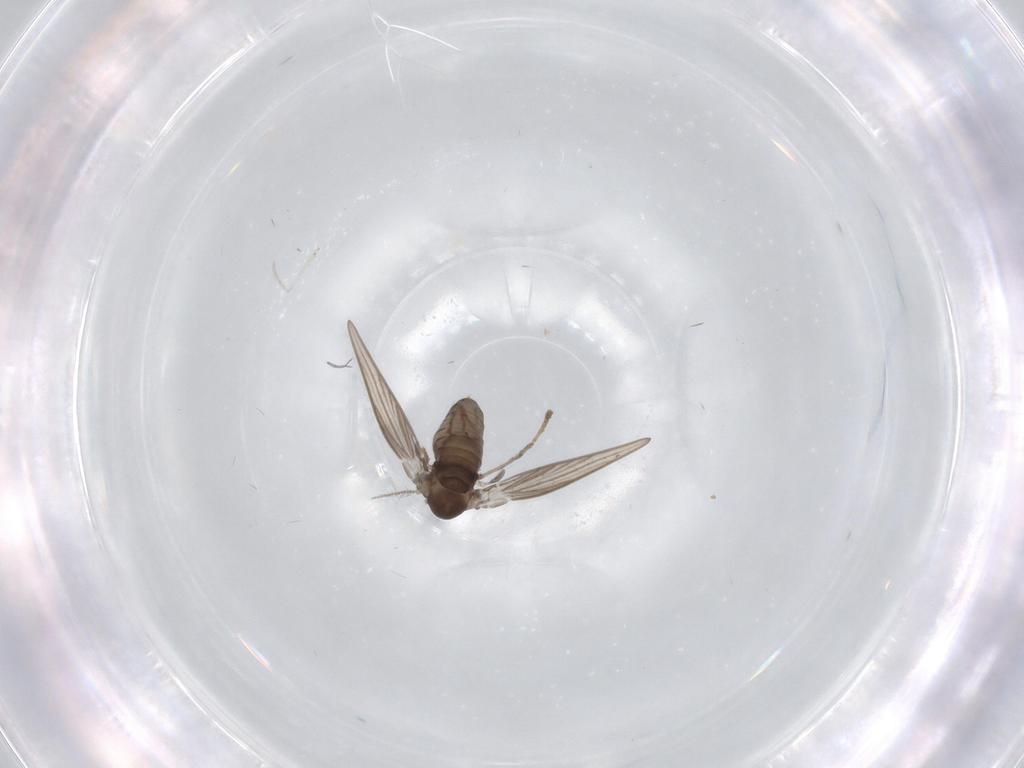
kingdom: Animalia
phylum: Arthropoda
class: Insecta
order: Diptera
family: Psychodidae
